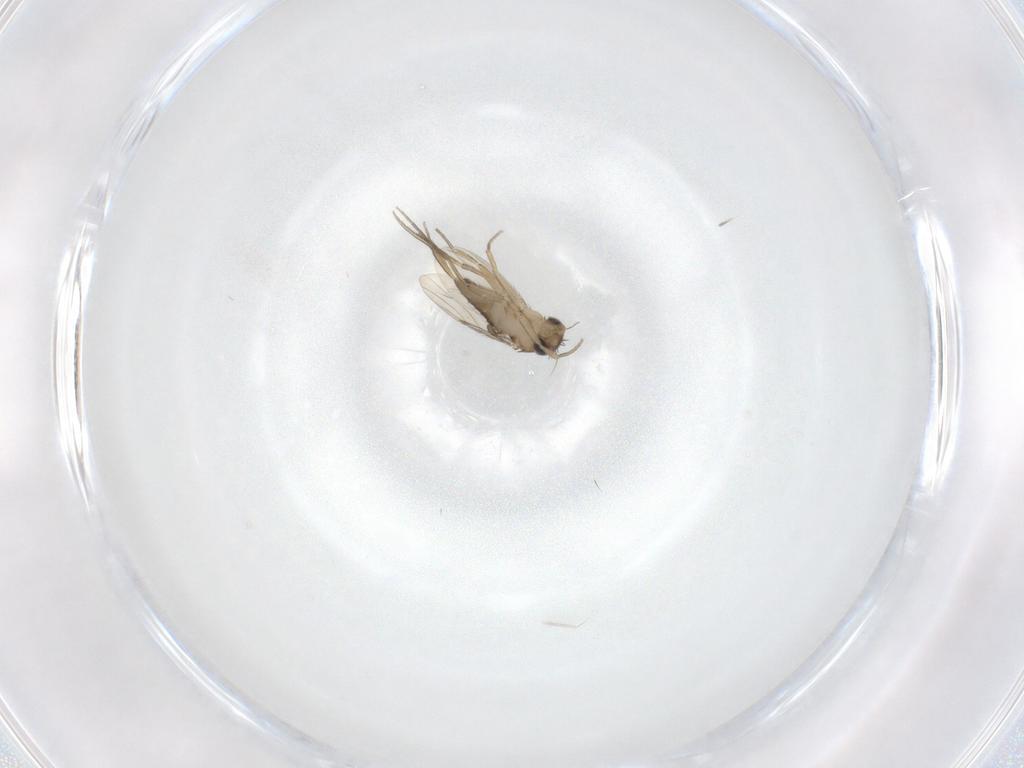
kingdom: Animalia
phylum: Arthropoda
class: Insecta
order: Diptera
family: Phoridae
